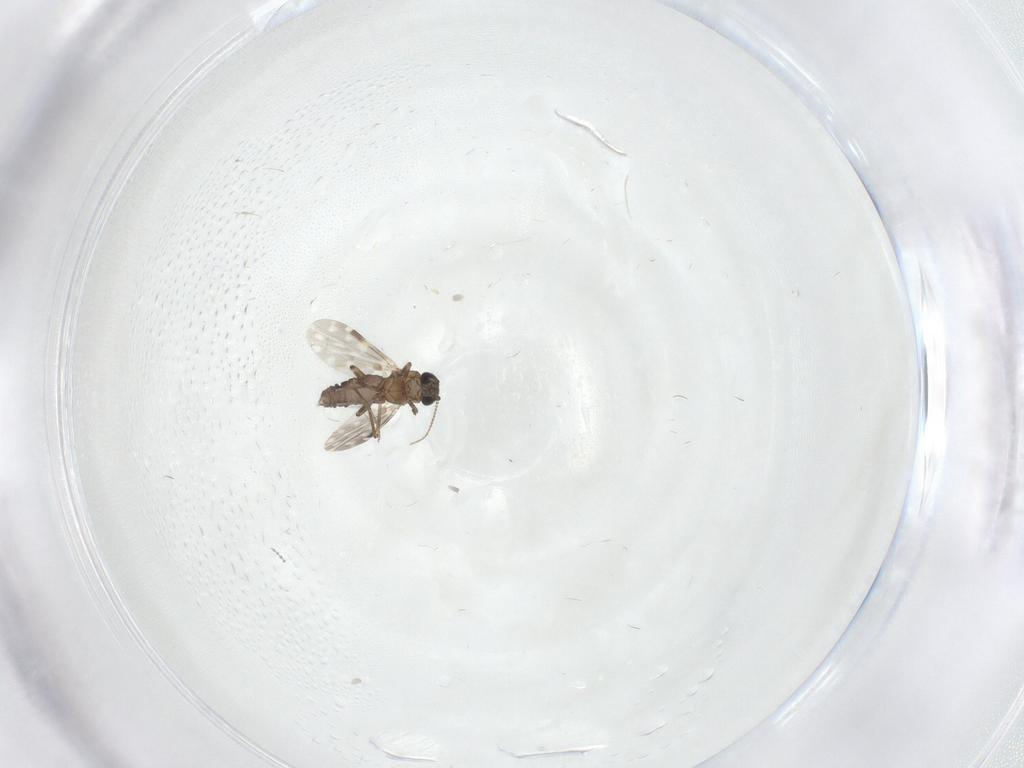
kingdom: Animalia
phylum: Arthropoda
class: Insecta
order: Diptera
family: Ceratopogonidae
